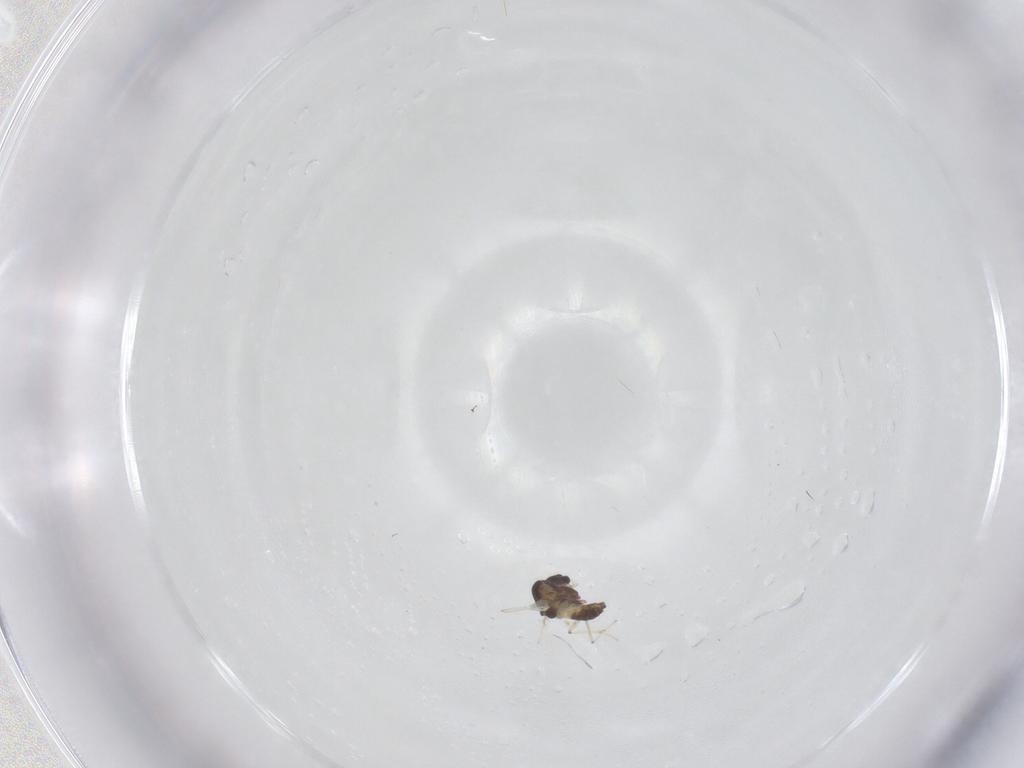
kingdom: Animalia
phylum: Arthropoda
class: Insecta
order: Diptera
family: Chironomidae
